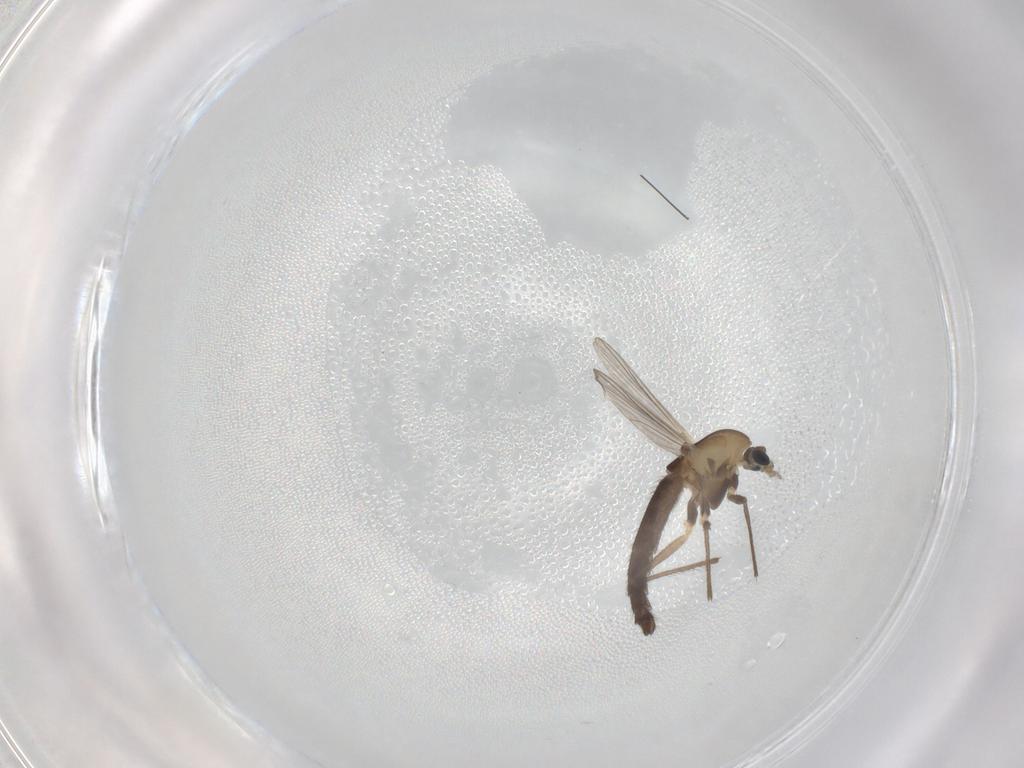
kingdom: Animalia
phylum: Arthropoda
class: Insecta
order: Diptera
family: Chironomidae
